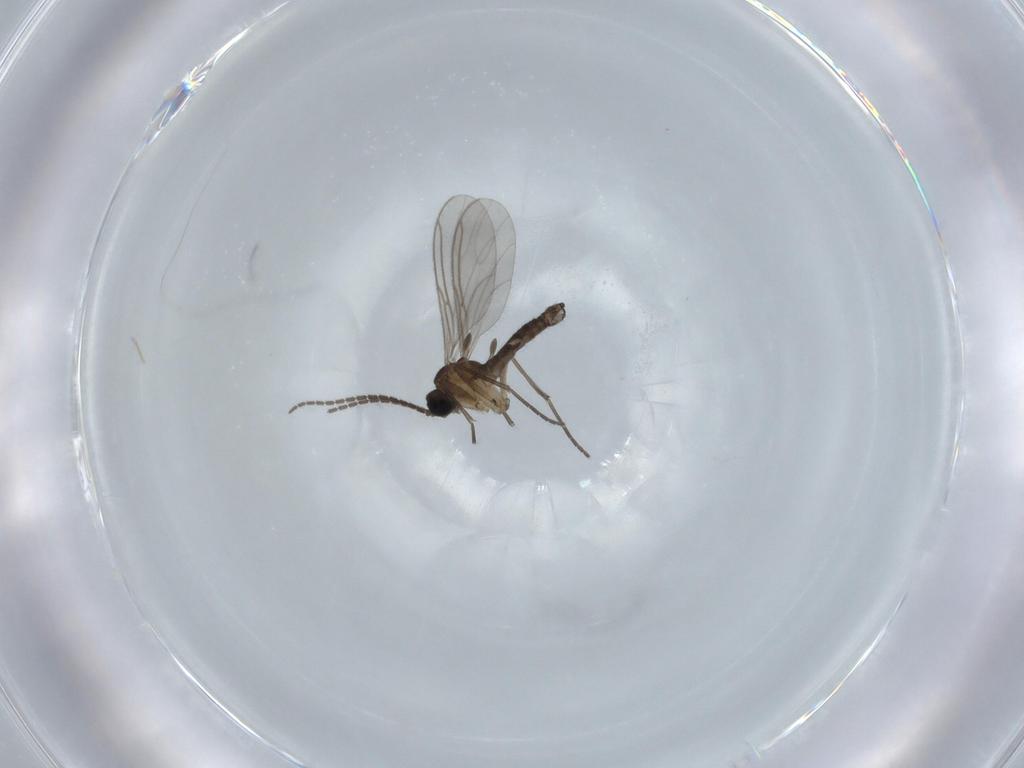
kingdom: Animalia
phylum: Arthropoda
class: Insecta
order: Diptera
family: Sciaridae
